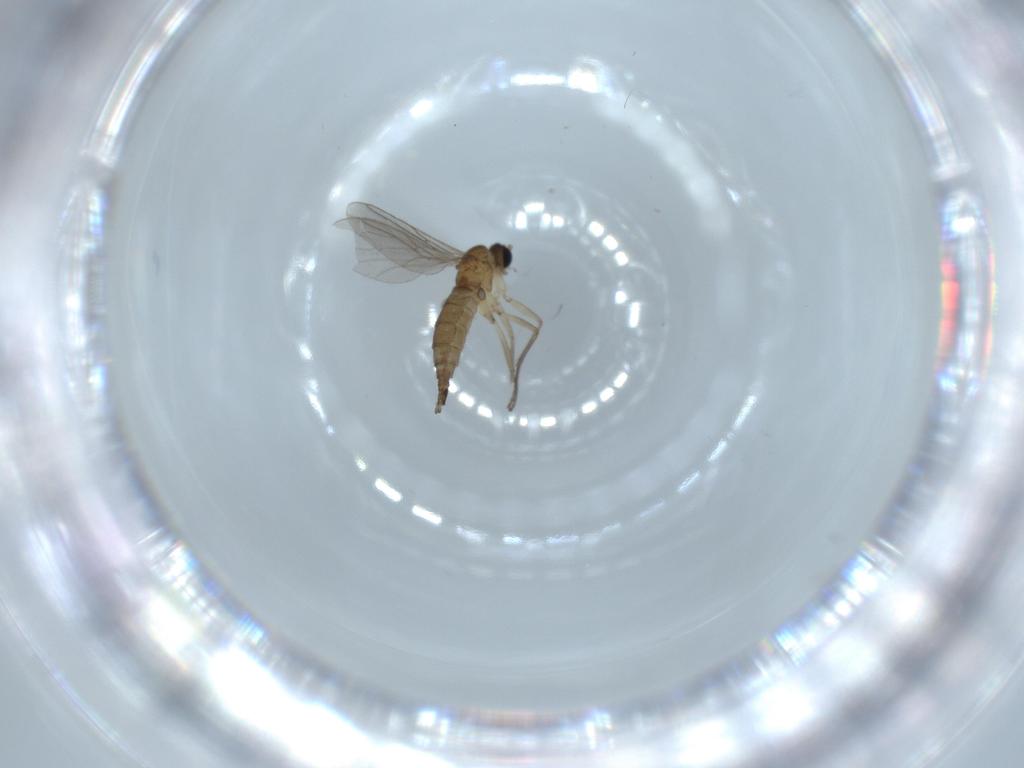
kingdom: Animalia
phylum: Arthropoda
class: Insecta
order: Diptera
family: Sciaridae
